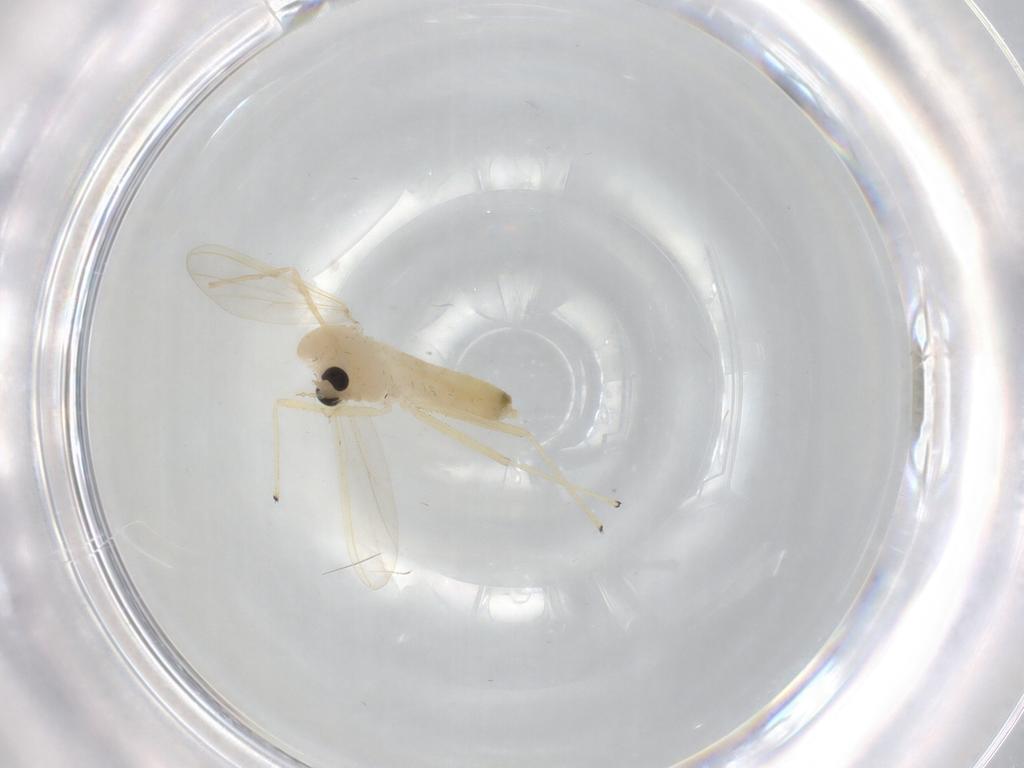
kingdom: Animalia
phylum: Arthropoda
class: Insecta
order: Diptera
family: Chironomidae
